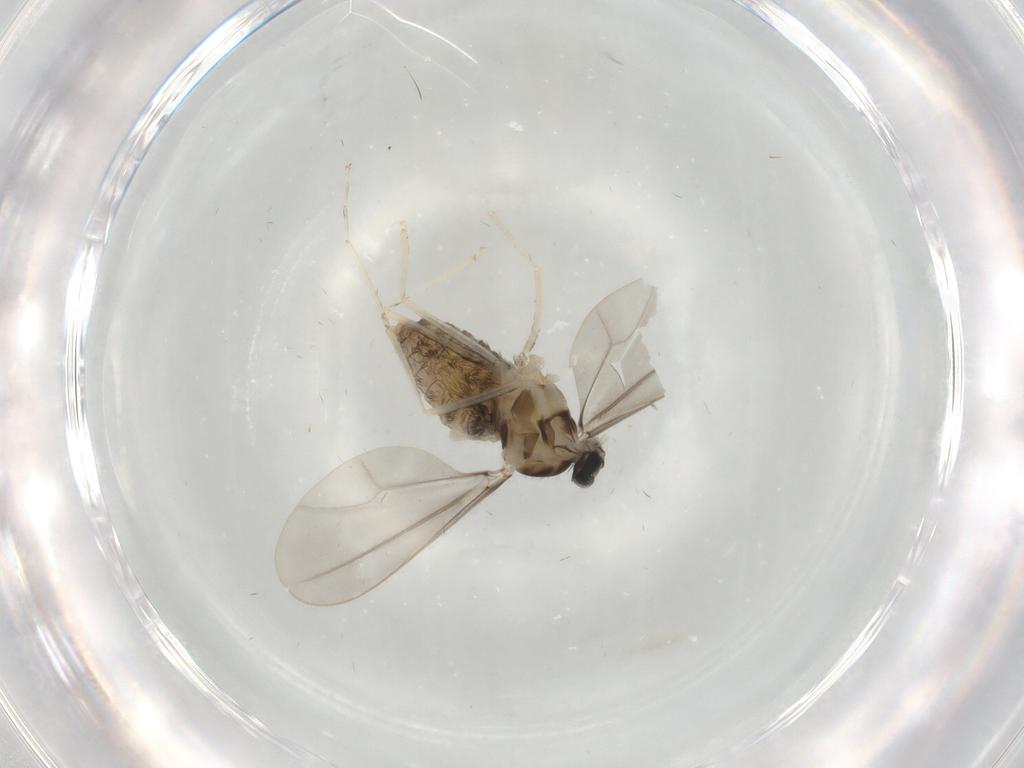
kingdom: Animalia
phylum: Arthropoda
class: Insecta
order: Diptera
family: Cecidomyiidae
